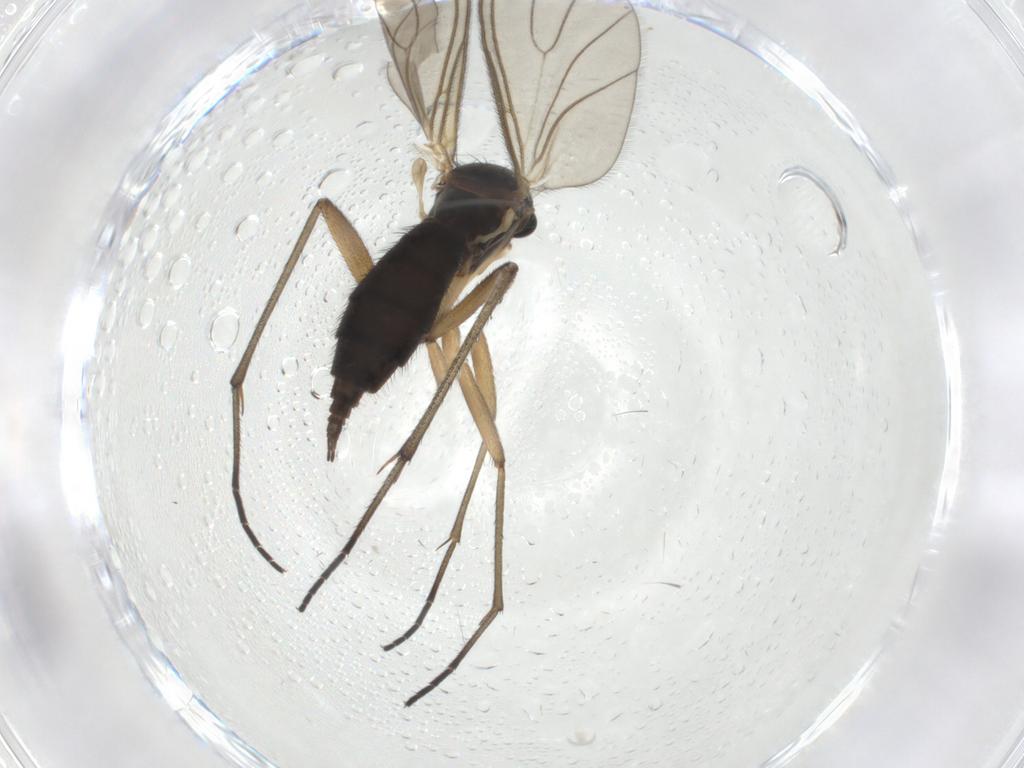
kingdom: Animalia
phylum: Arthropoda
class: Insecta
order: Diptera
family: Sciaridae
